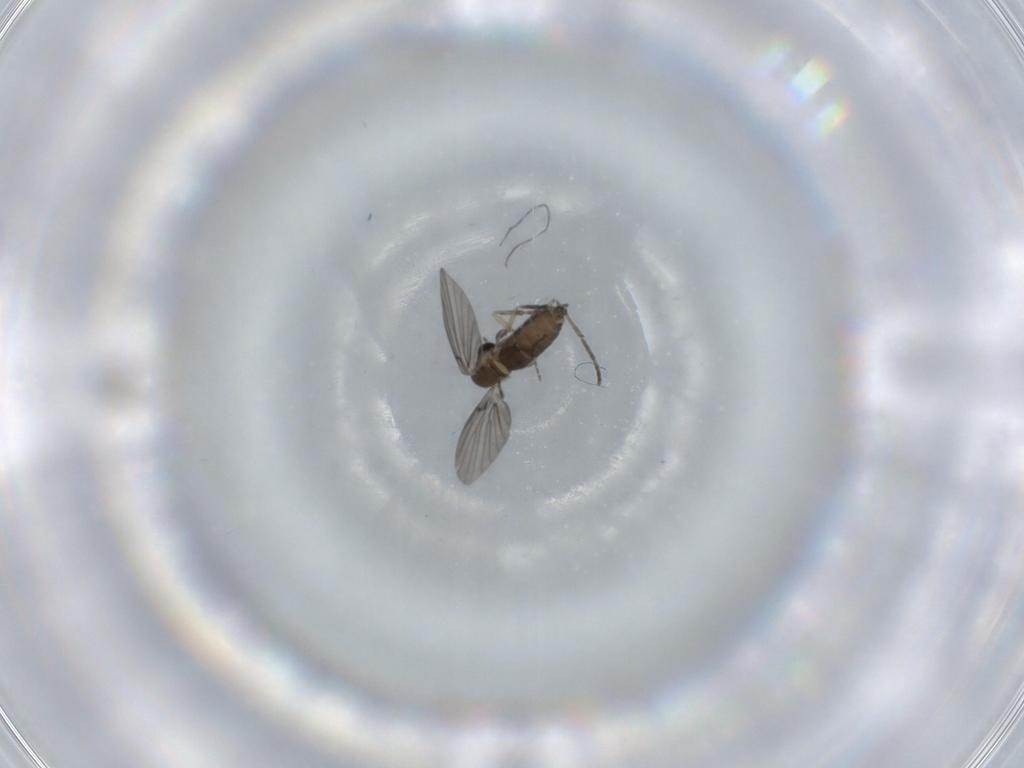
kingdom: Animalia
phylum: Arthropoda
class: Insecta
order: Diptera
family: Psychodidae
